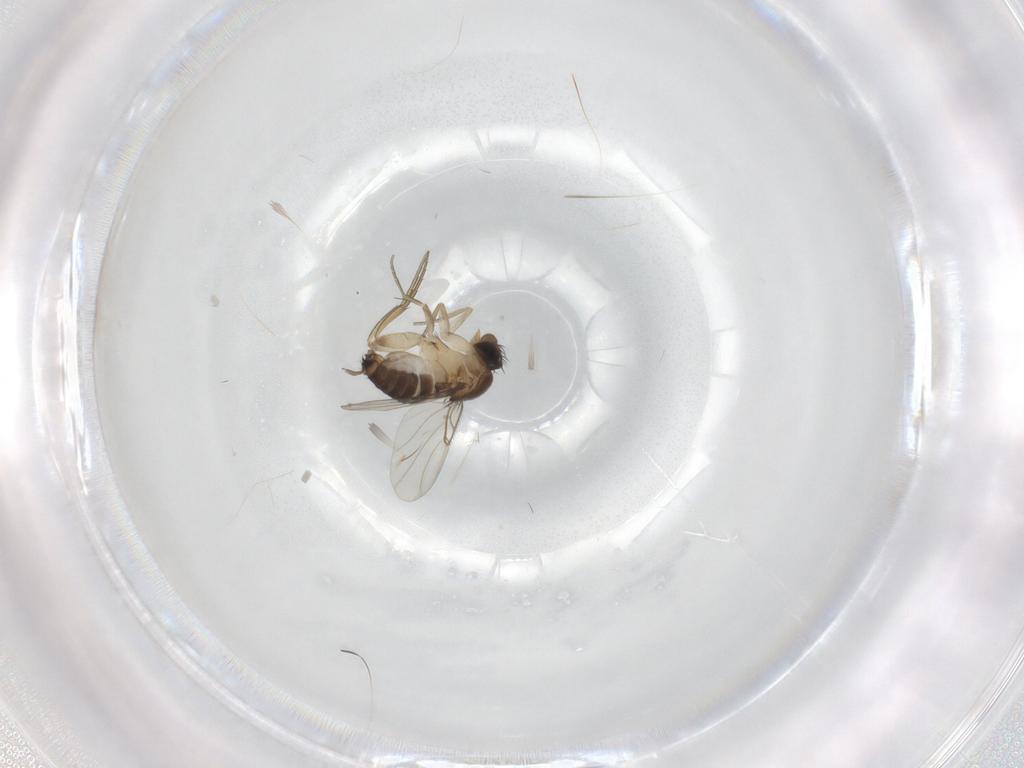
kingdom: Animalia
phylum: Arthropoda
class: Insecta
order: Diptera
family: Cecidomyiidae
